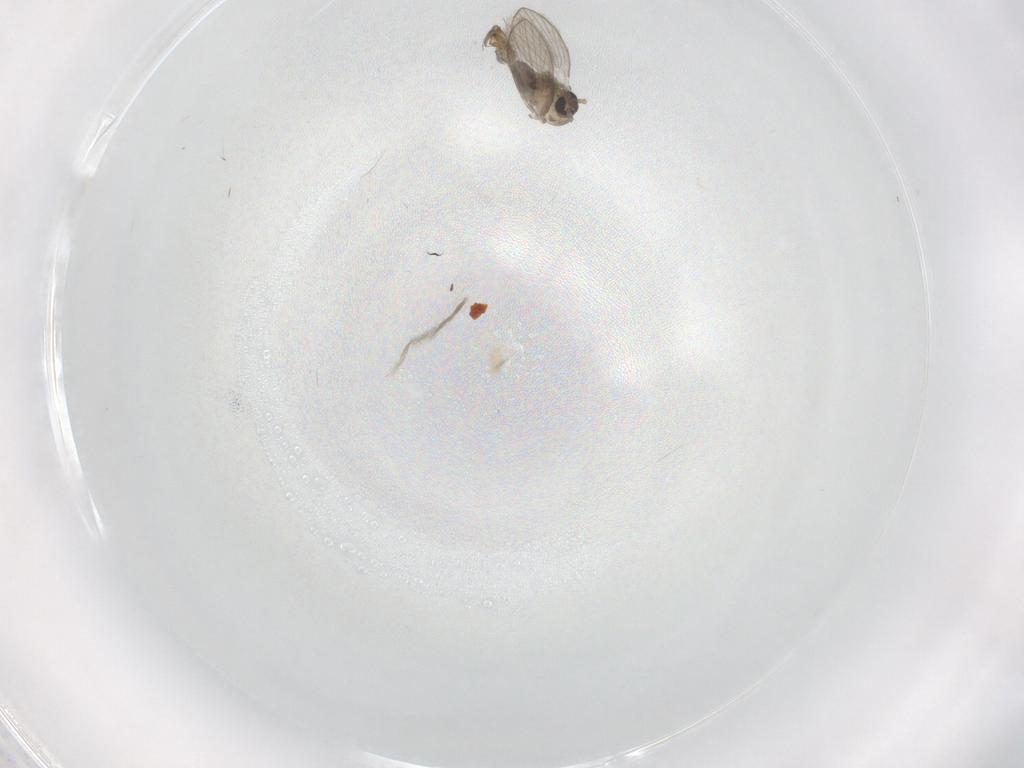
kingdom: Animalia
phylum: Arthropoda
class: Insecta
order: Diptera
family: Psychodidae
